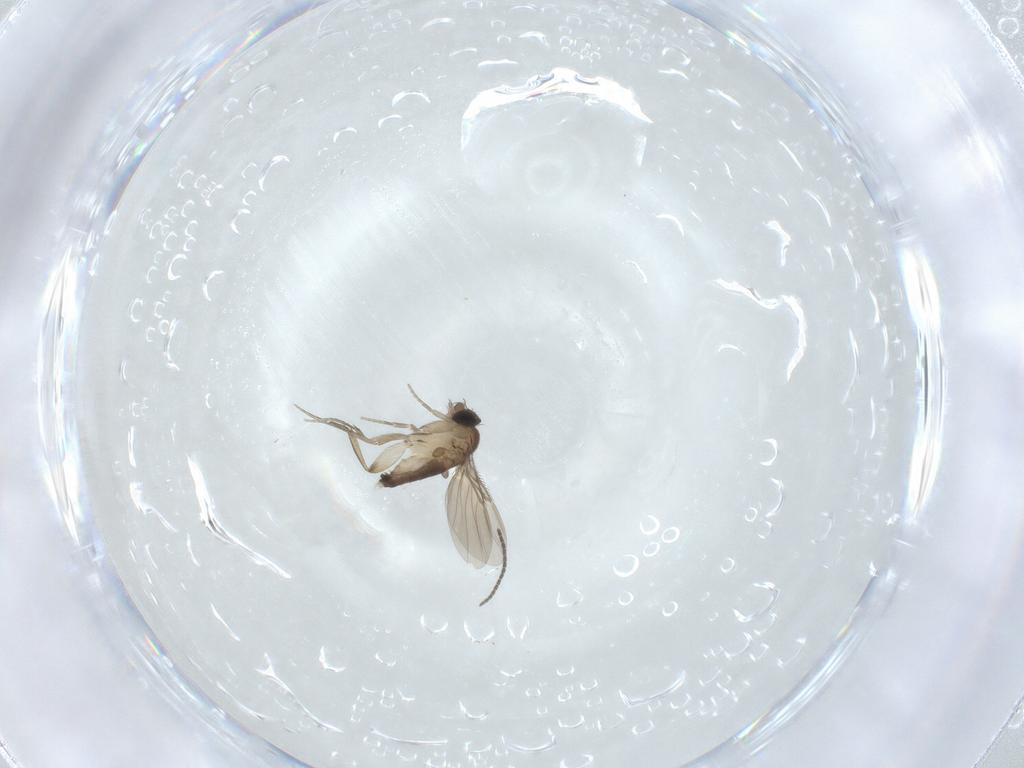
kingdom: Animalia
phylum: Arthropoda
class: Insecta
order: Diptera
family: Phoridae
